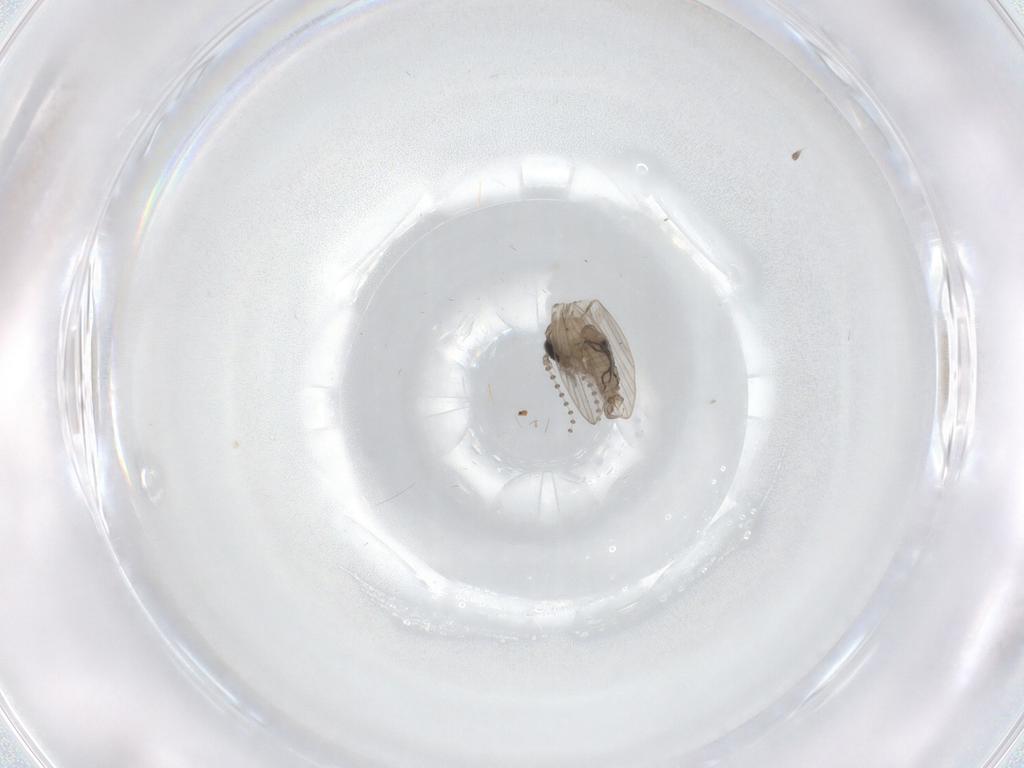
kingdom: Animalia
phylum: Arthropoda
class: Insecta
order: Diptera
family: Psychodidae
